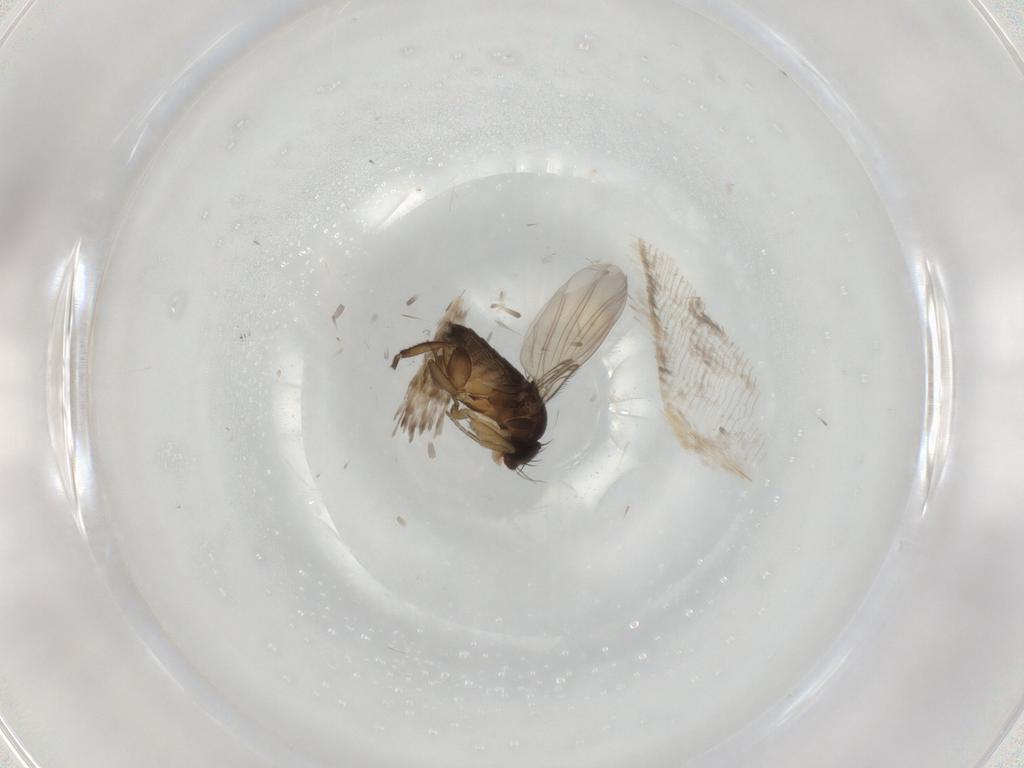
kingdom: Animalia
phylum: Arthropoda
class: Insecta
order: Diptera
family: Phoridae
